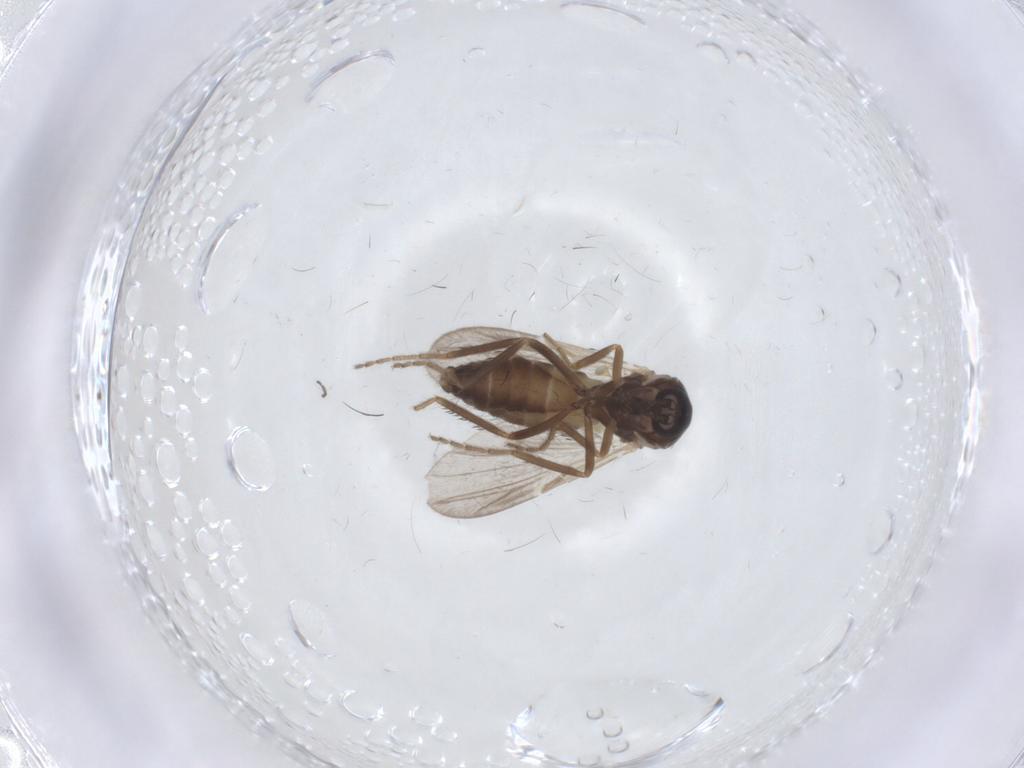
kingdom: Animalia
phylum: Arthropoda
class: Insecta
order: Diptera
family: Ceratopogonidae
